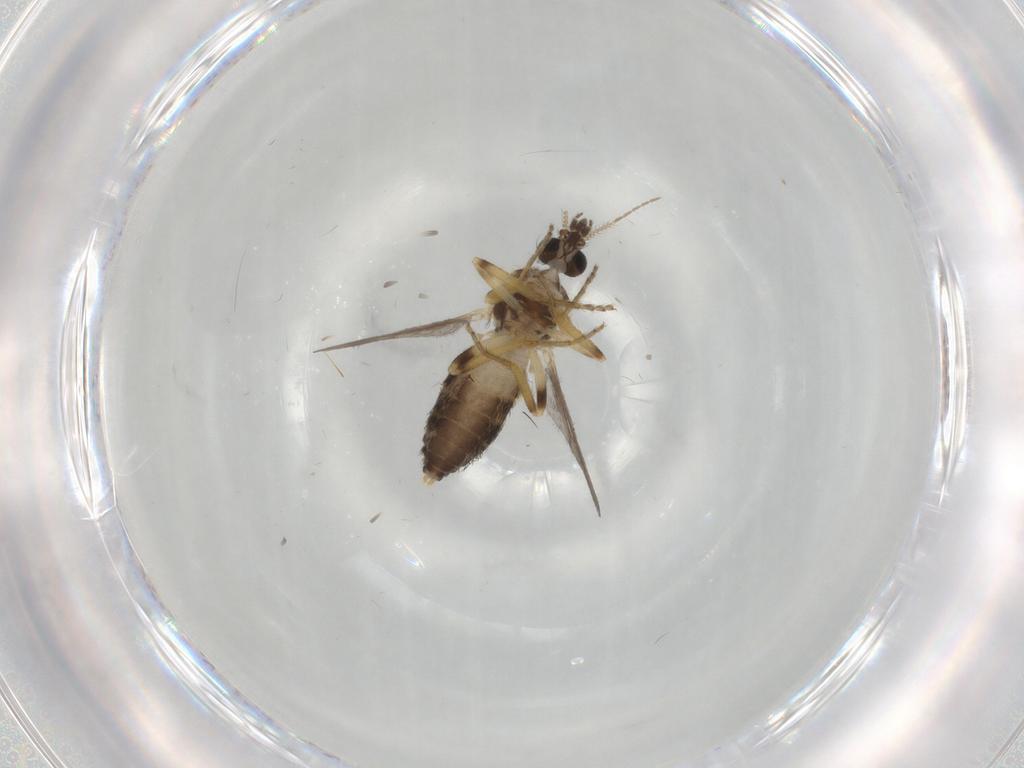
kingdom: Animalia
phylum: Arthropoda
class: Insecta
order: Diptera
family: Ceratopogonidae
